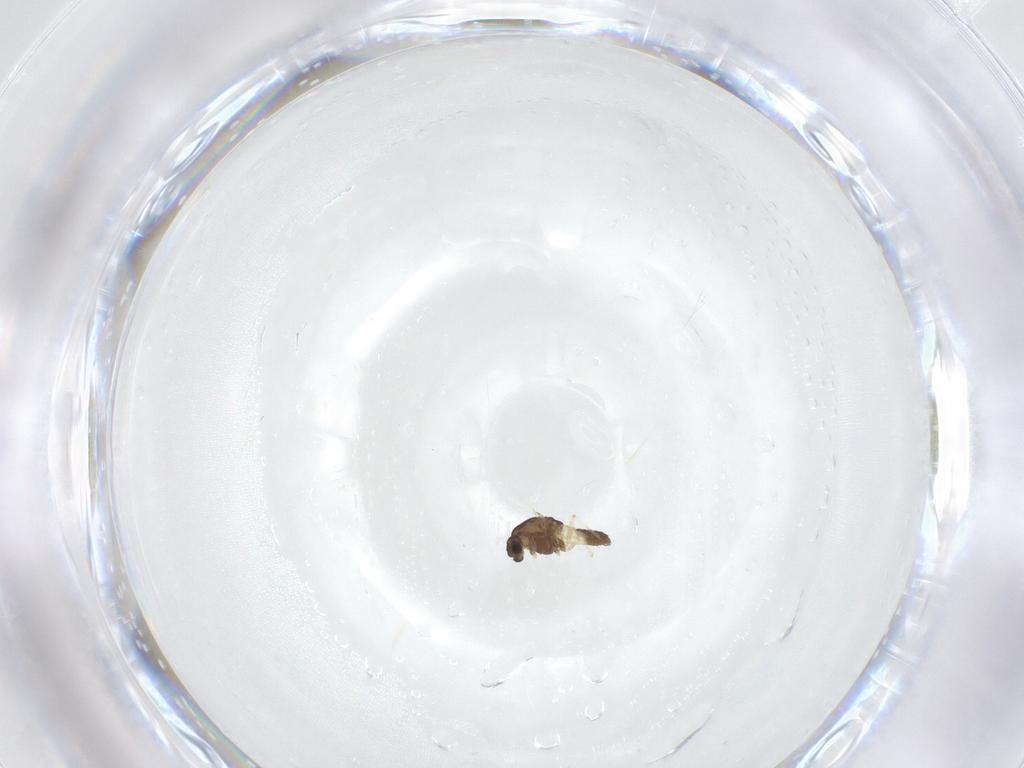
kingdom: Animalia
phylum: Arthropoda
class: Insecta
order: Diptera
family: Chironomidae
